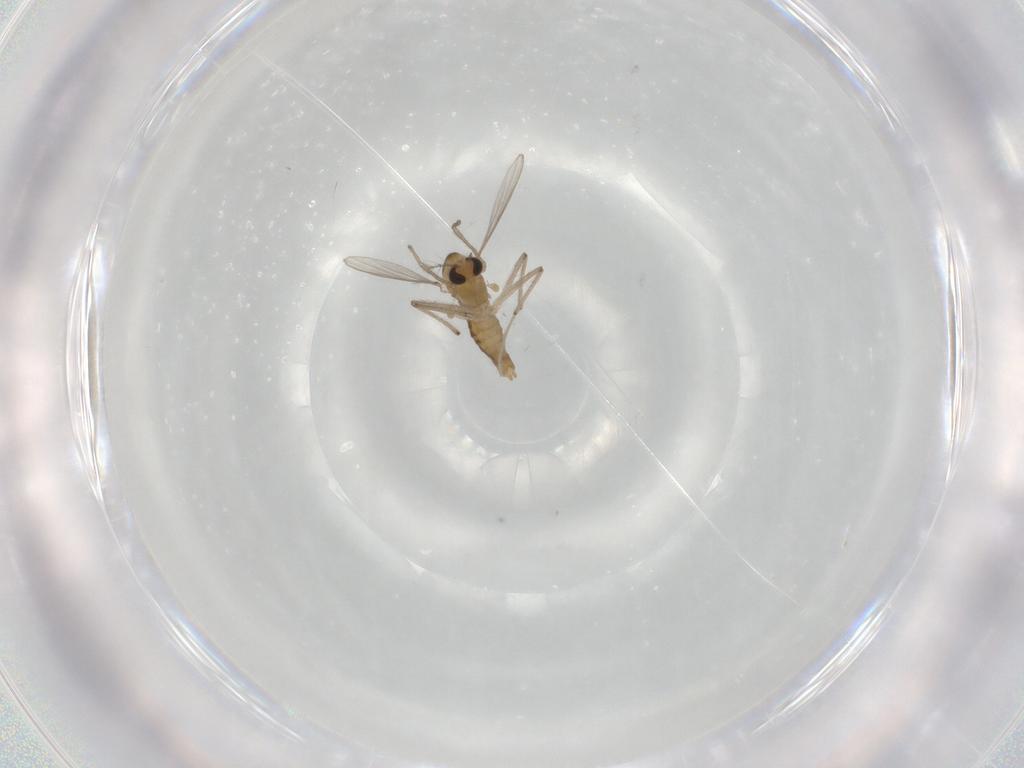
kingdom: Animalia
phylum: Arthropoda
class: Insecta
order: Diptera
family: Chironomidae
